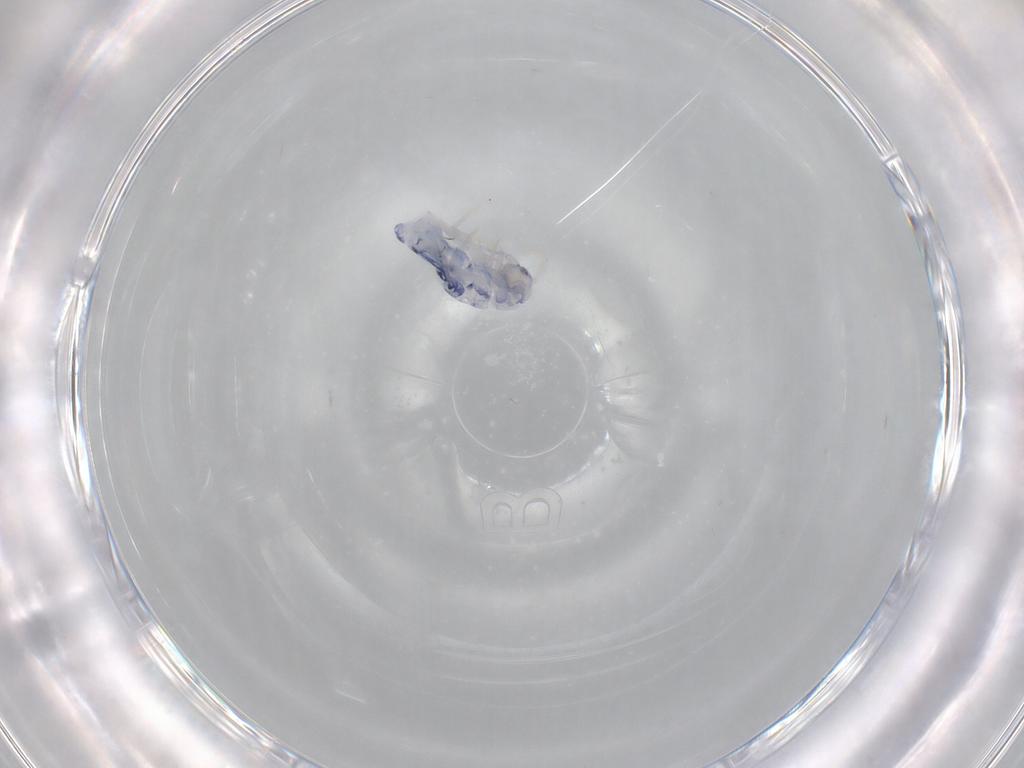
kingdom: Animalia
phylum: Arthropoda
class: Collembola
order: Entomobryomorpha
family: Entomobryidae
